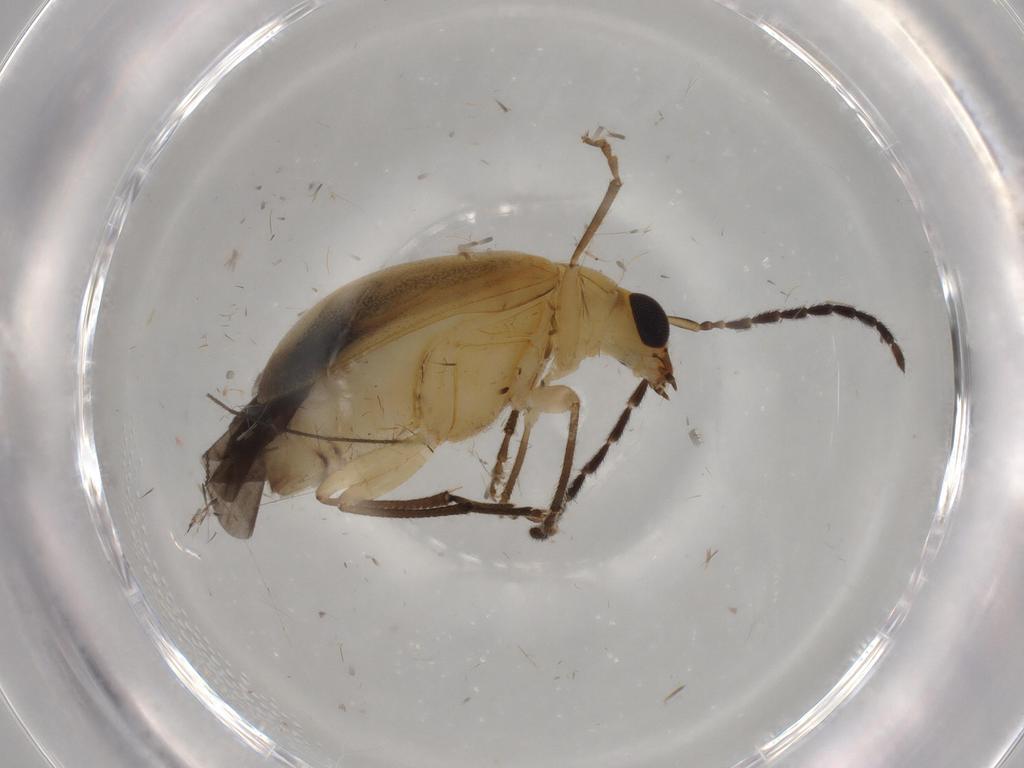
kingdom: Animalia
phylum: Arthropoda
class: Insecta
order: Coleoptera
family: Chrysomelidae
